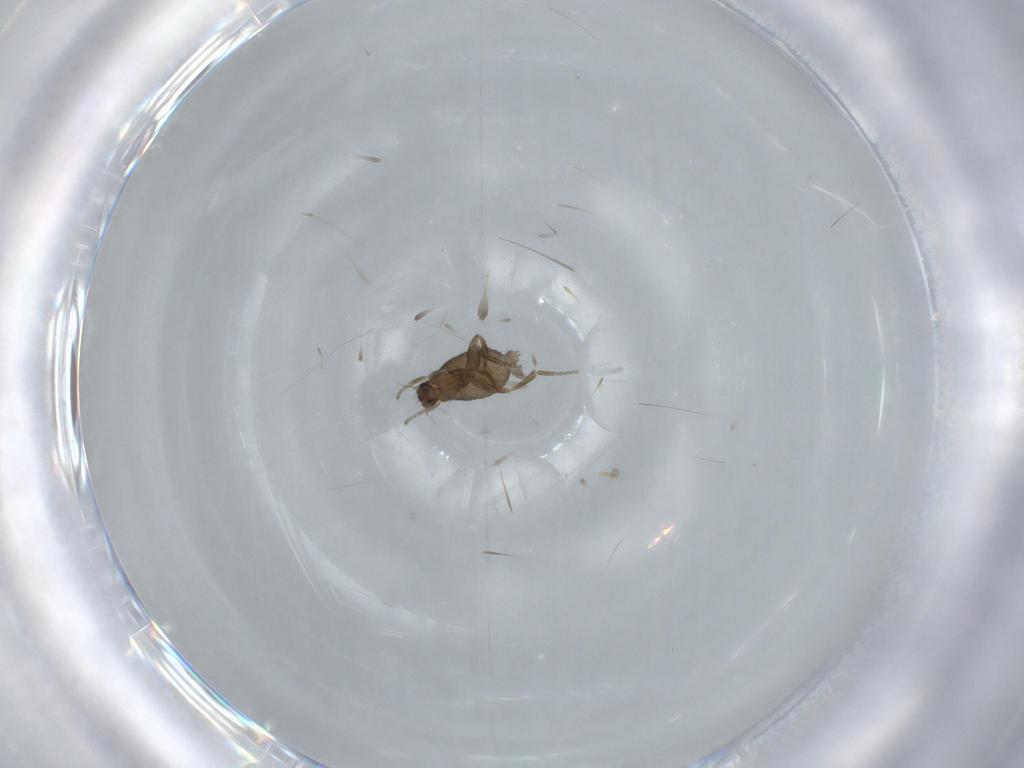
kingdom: Animalia
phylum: Arthropoda
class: Insecta
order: Diptera
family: Phoridae
